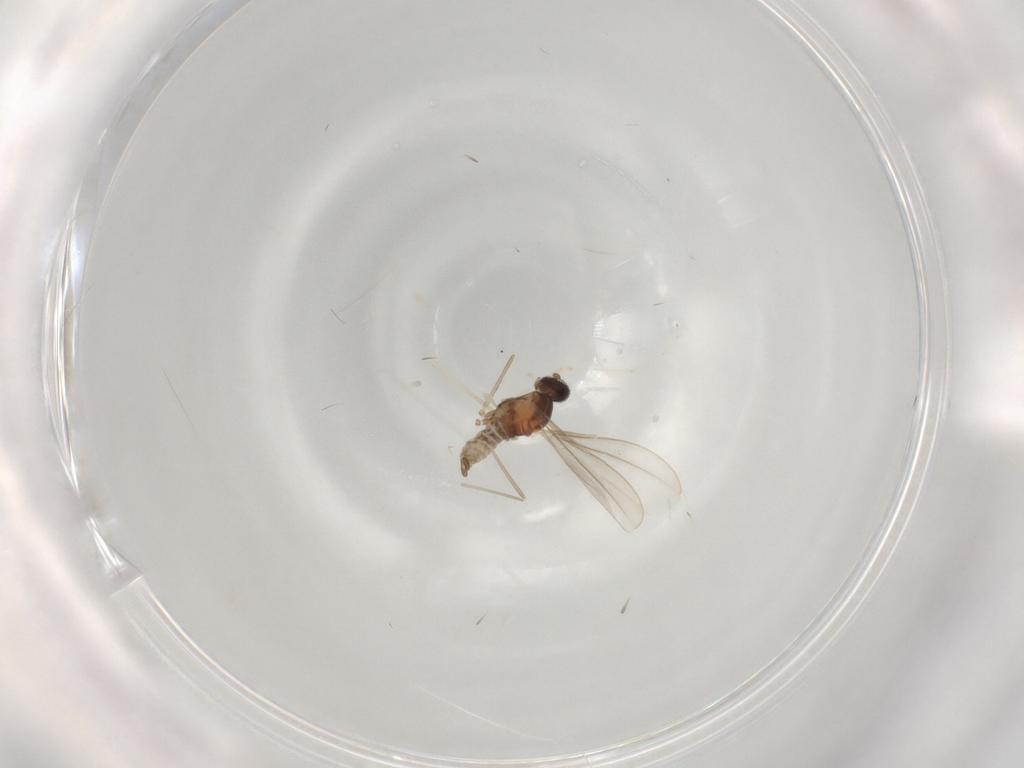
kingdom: Animalia
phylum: Arthropoda
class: Insecta
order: Diptera
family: Cecidomyiidae
